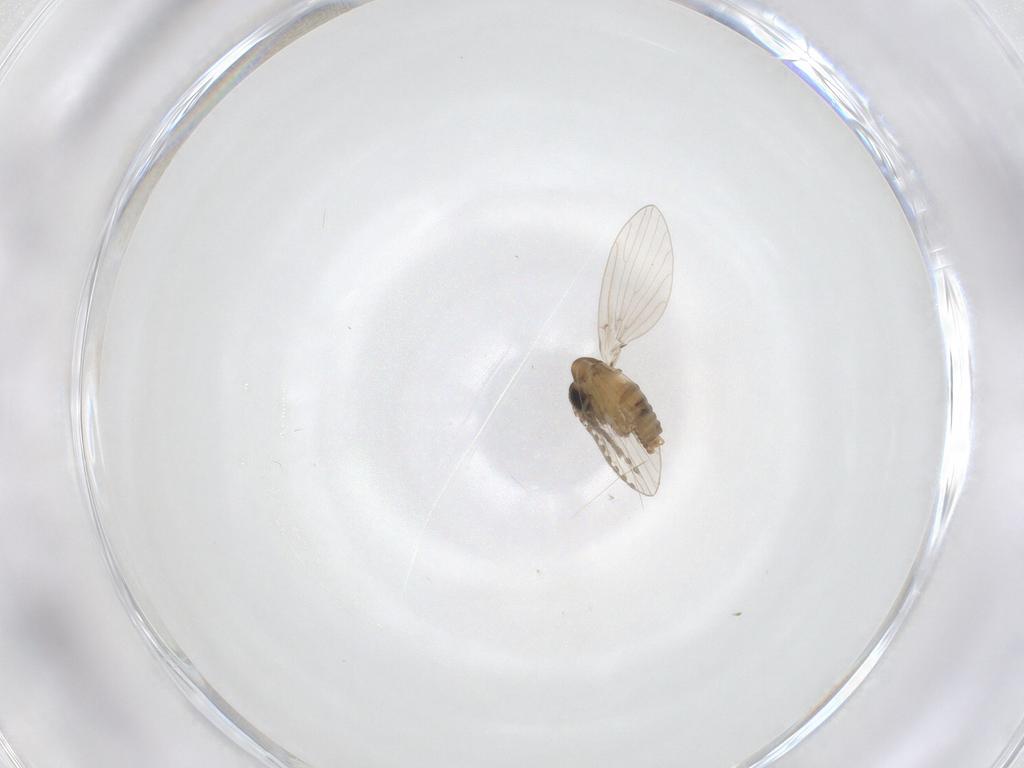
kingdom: Animalia
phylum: Arthropoda
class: Insecta
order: Diptera
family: Psychodidae
